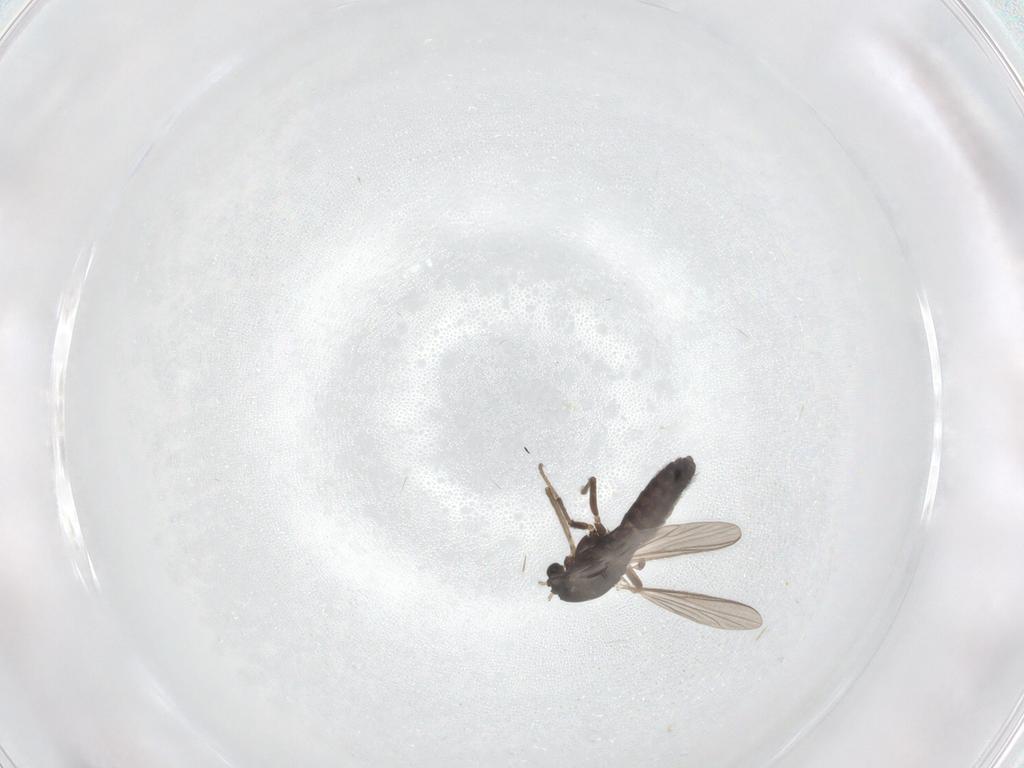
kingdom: Animalia
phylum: Arthropoda
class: Insecta
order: Diptera
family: Chironomidae
